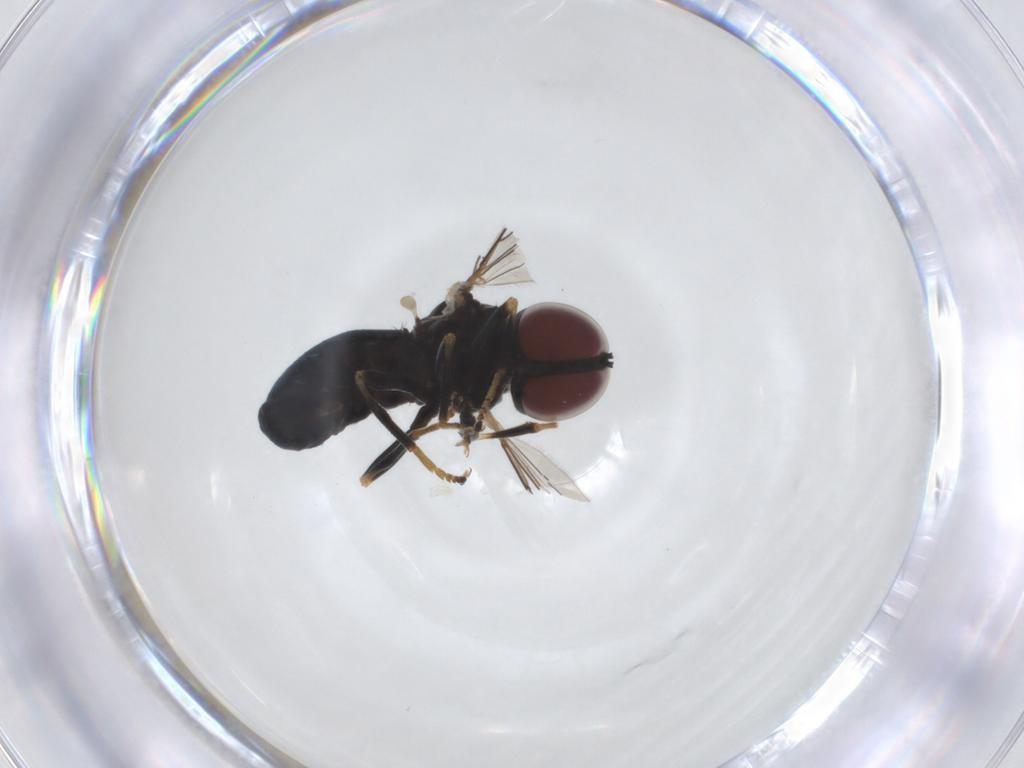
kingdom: Animalia
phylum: Arthropoda
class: Insecta
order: Diptera
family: Pipunculidae
